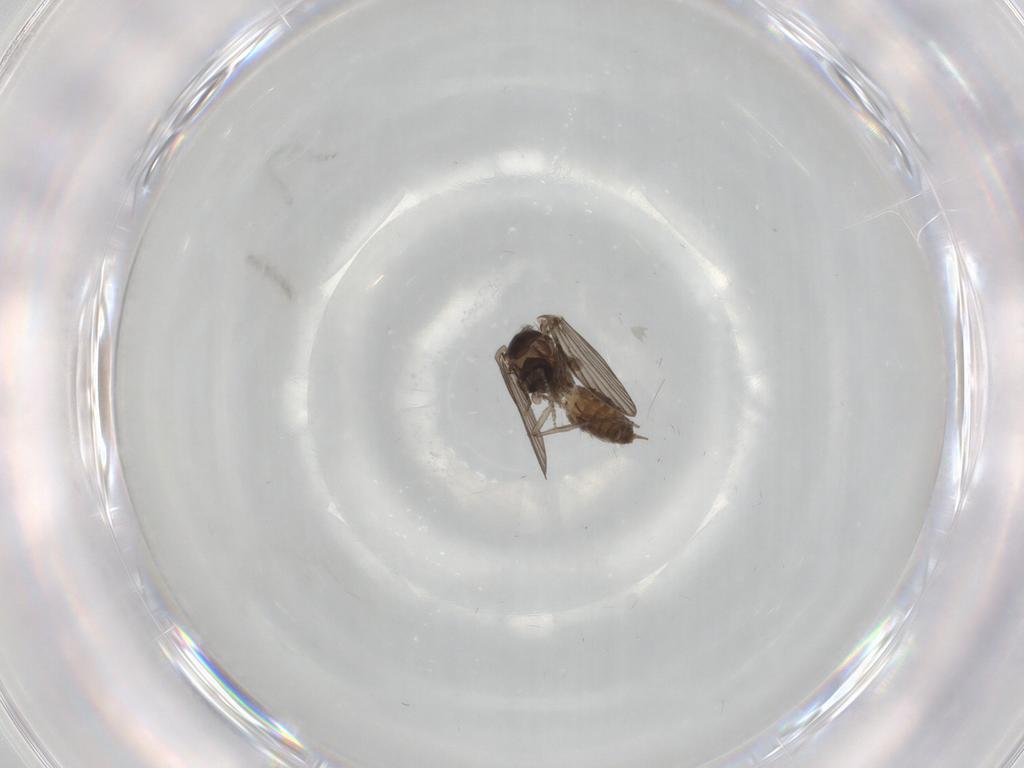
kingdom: Animalia
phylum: Arthropoda
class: Insecta
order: Diptera
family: Psychodidae
